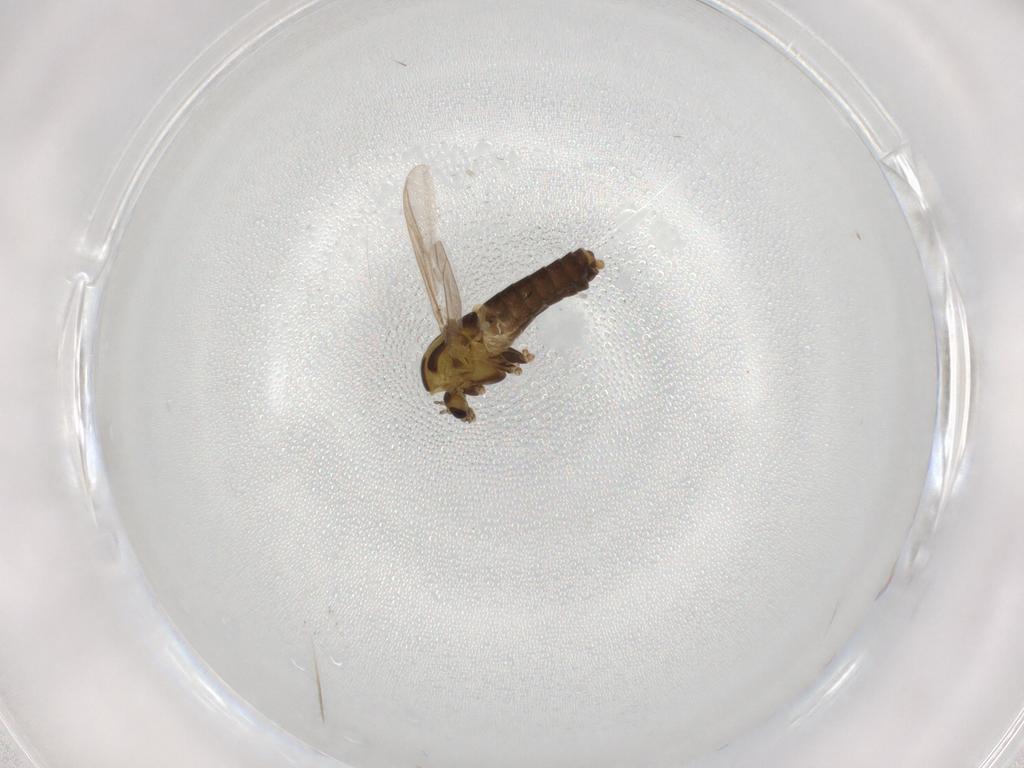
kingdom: Animalia
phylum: Arthropoda
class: Insecta
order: Diptera
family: Chironomidae
